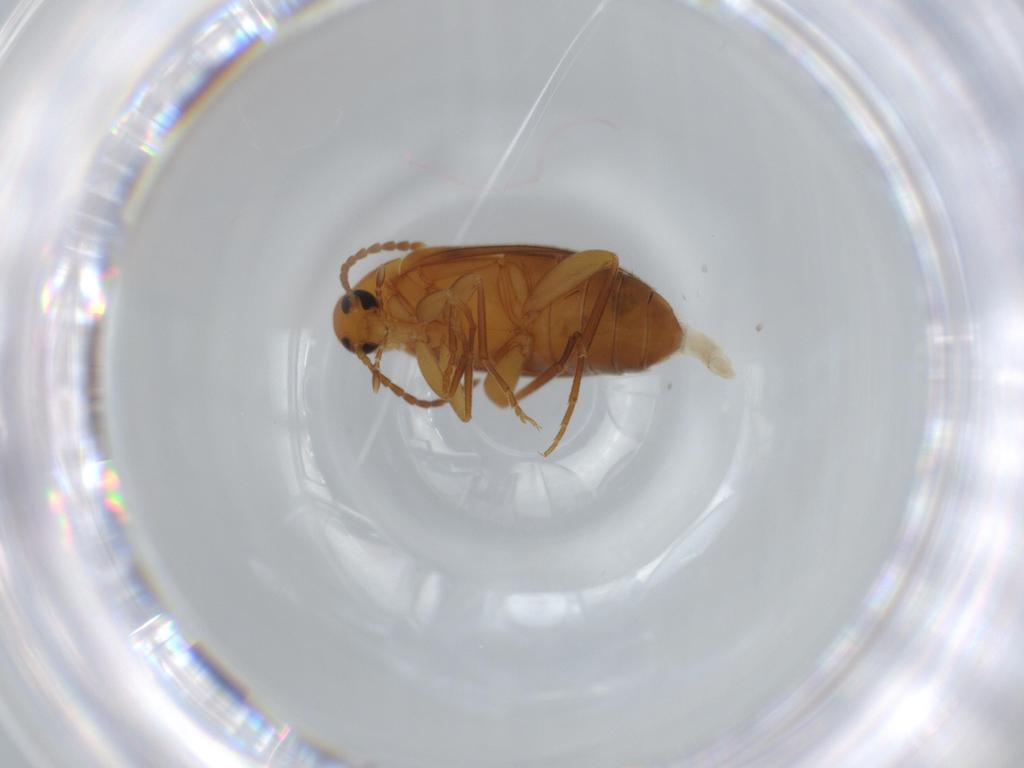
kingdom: Animalia
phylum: Arthropoda
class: Insecta
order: Coleoptera
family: Scraptiidae
